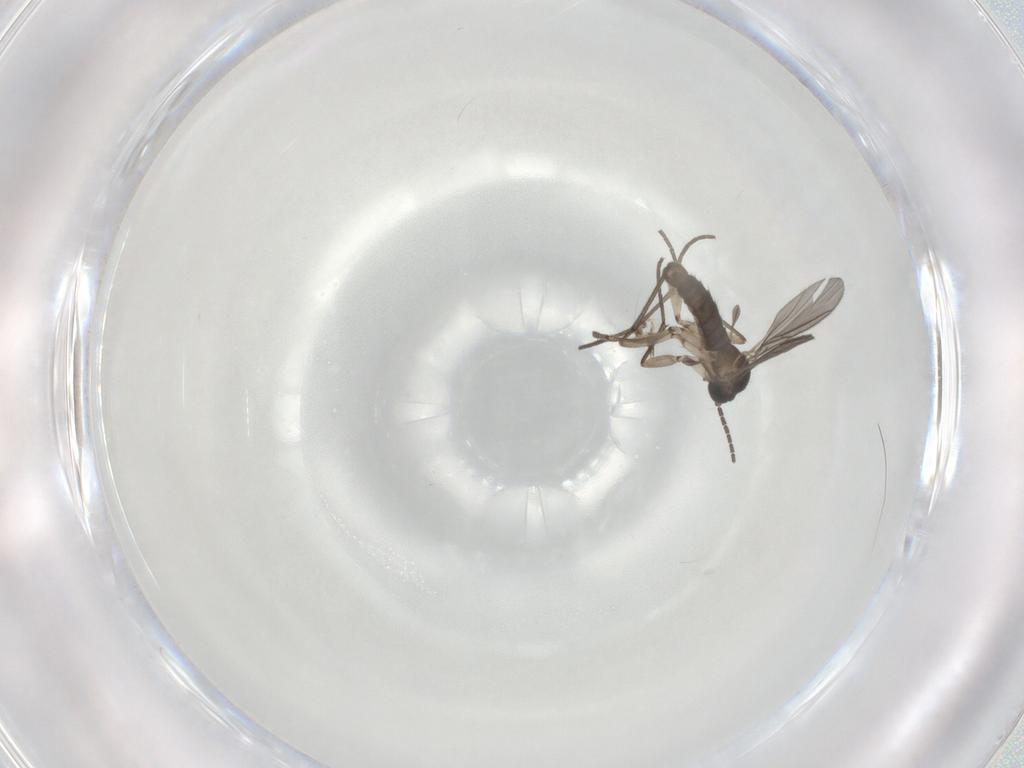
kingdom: Animalia
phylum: Arthropoda
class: Insecta
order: Diptera
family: Sciaridae
